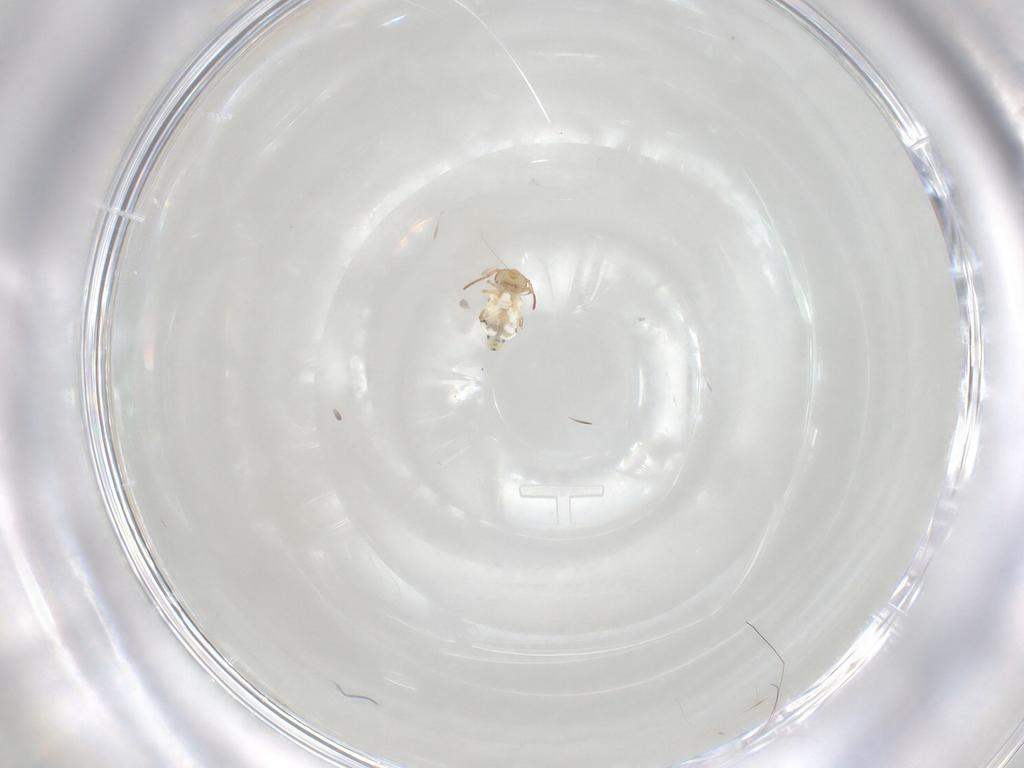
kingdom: Animalia
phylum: Arthropoda
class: Collembola
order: Symphypleona
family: Bourletiellidae
